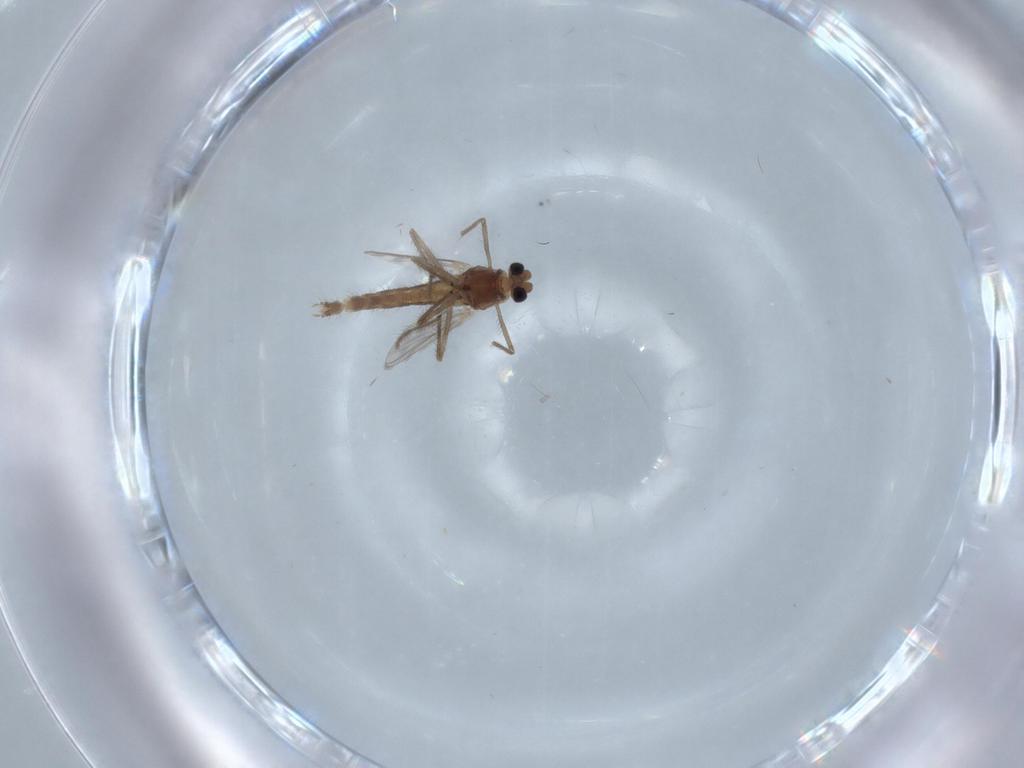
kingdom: Animalia
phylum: Arthropoda
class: Insecta
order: Diptera
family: Chironomidae
